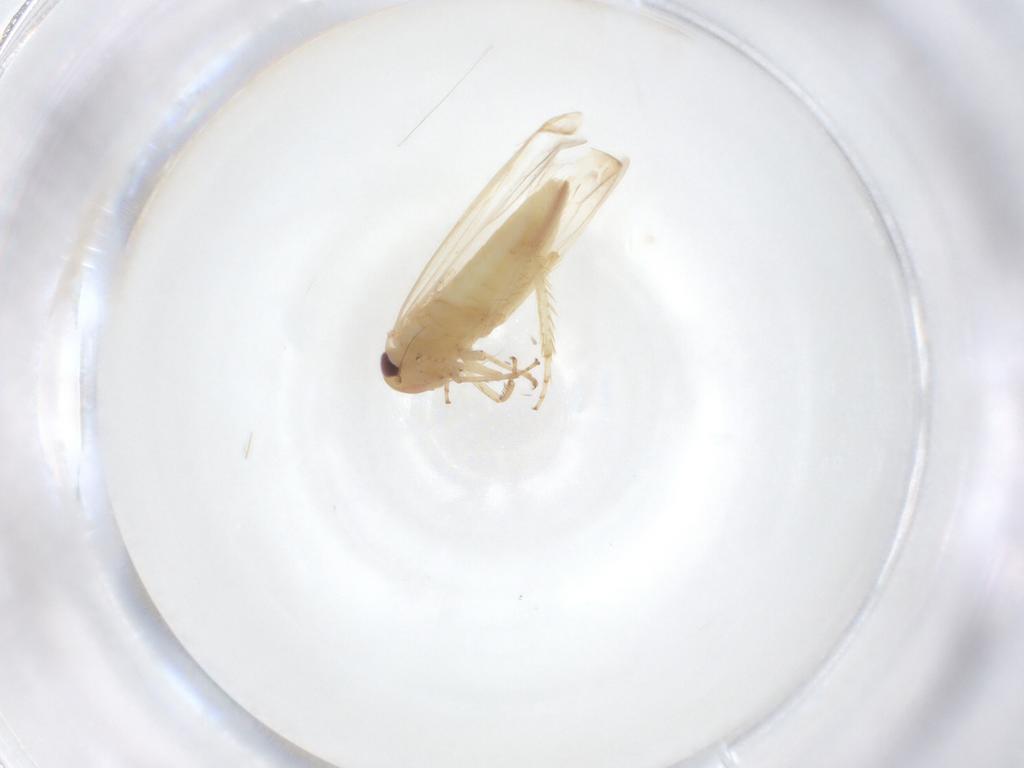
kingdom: Animalia
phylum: Arthropoda
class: Insecta
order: Hemiptera
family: Cicadellidae
